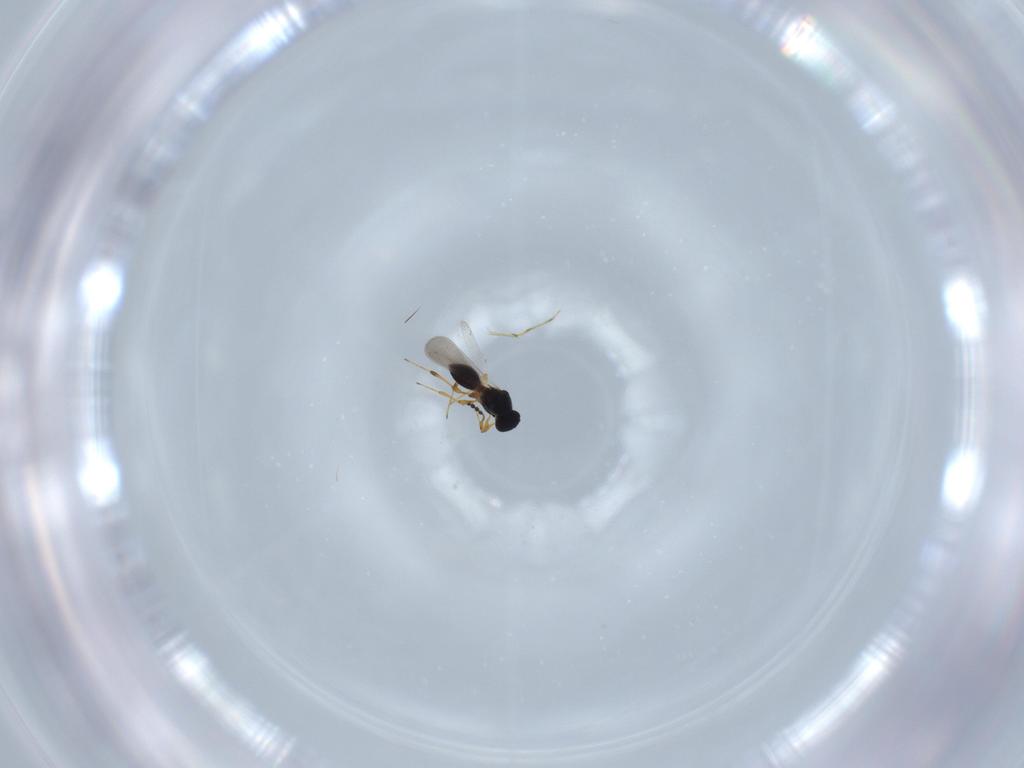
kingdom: Animalia
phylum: Arthropoda
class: Insecta
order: Hymenoptera
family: Platygastridae
